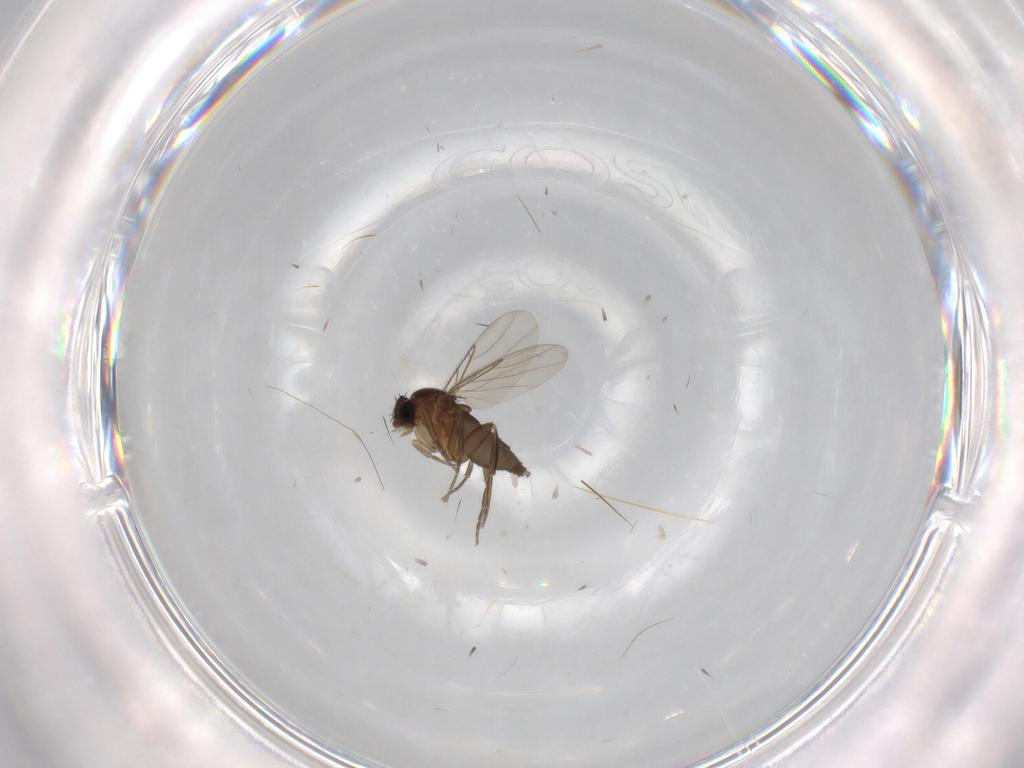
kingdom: Animalia
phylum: Arthropoda
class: Insecta
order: Diptera
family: Phoridae
